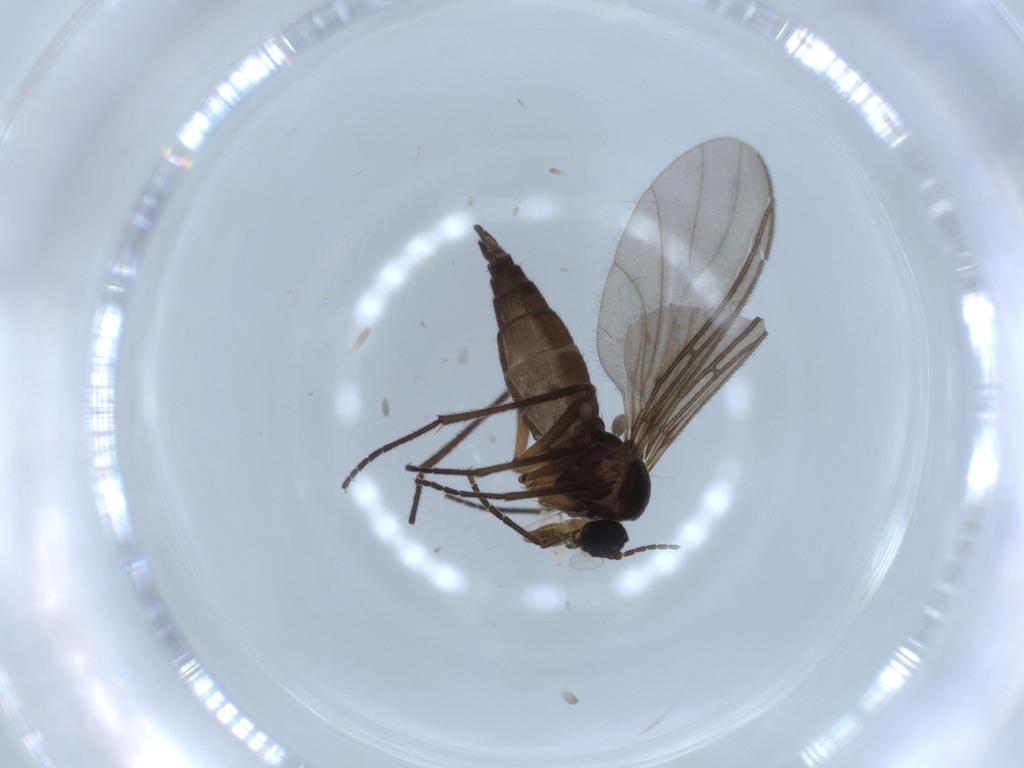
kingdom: Animalia
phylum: Arthropoda
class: Insecta
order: Diptera
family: Chironomidae
